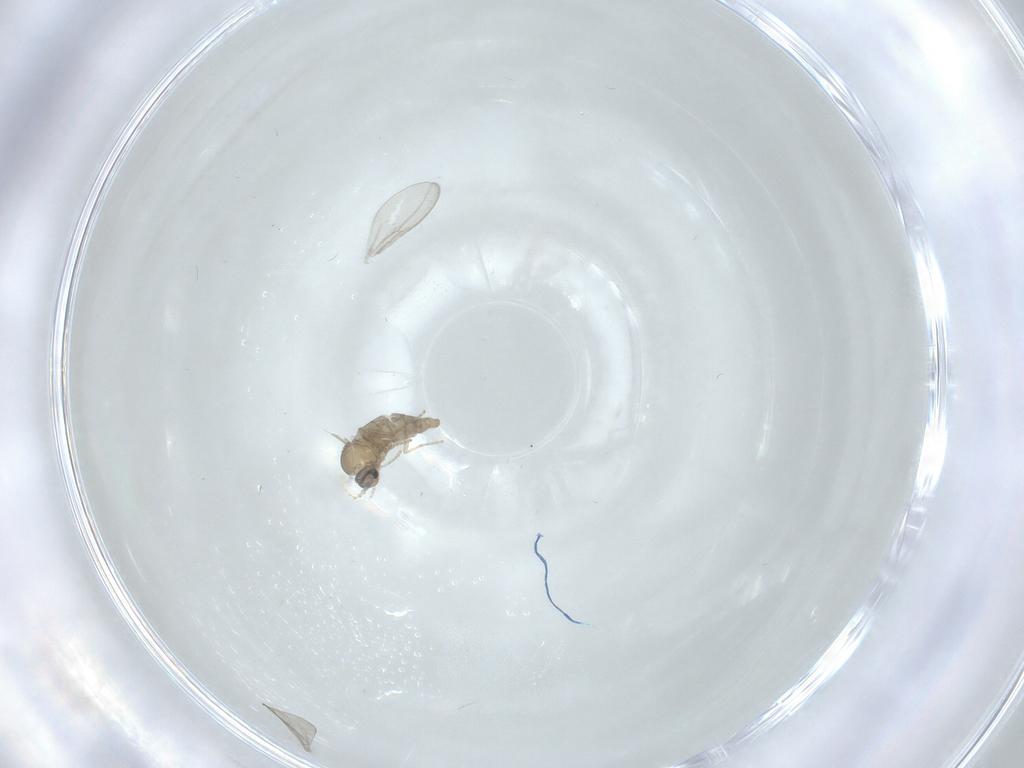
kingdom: Animalia
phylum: Arthropoda
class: Insecta
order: Diptera
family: Cecidomyiidae
